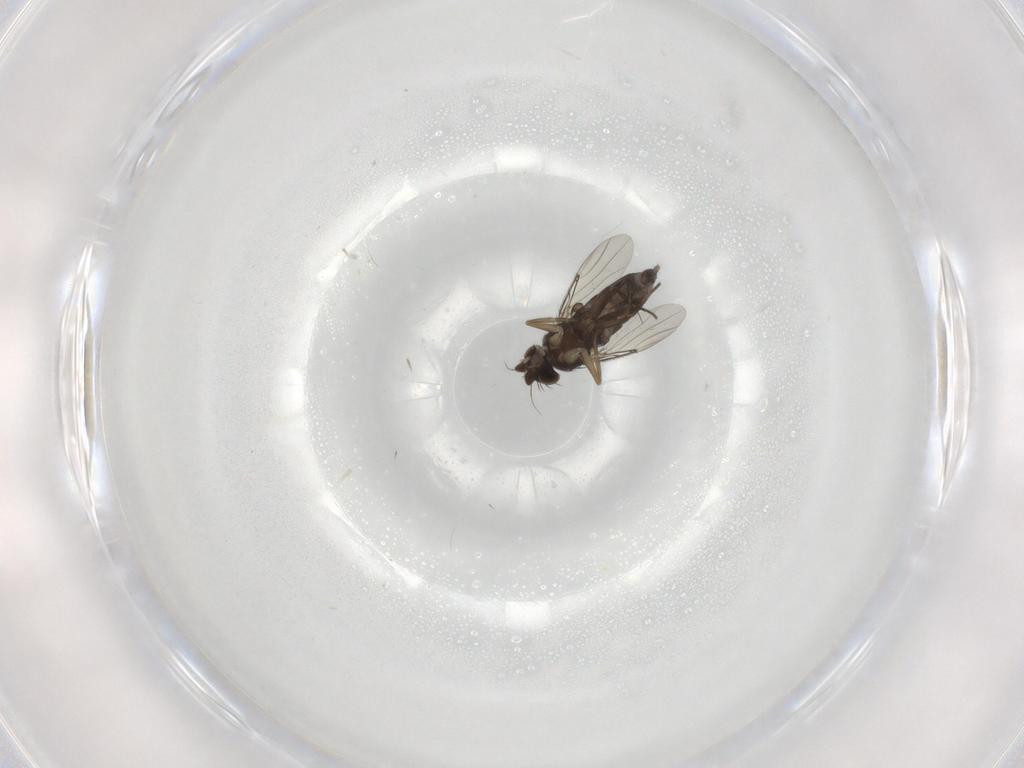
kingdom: Animalia
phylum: Arthropoda
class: Insecta
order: Diptera
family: Phoridae
